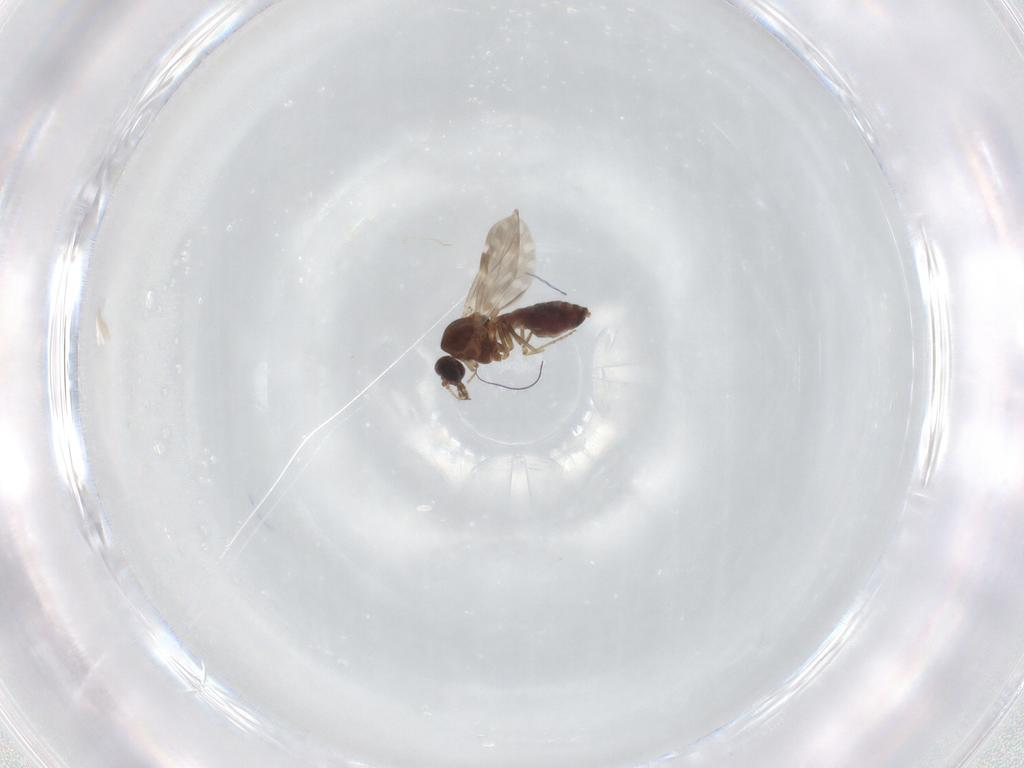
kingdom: Animalia
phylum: Arthropoda
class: Insecta
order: Diptera
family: Ceratopogonidae
